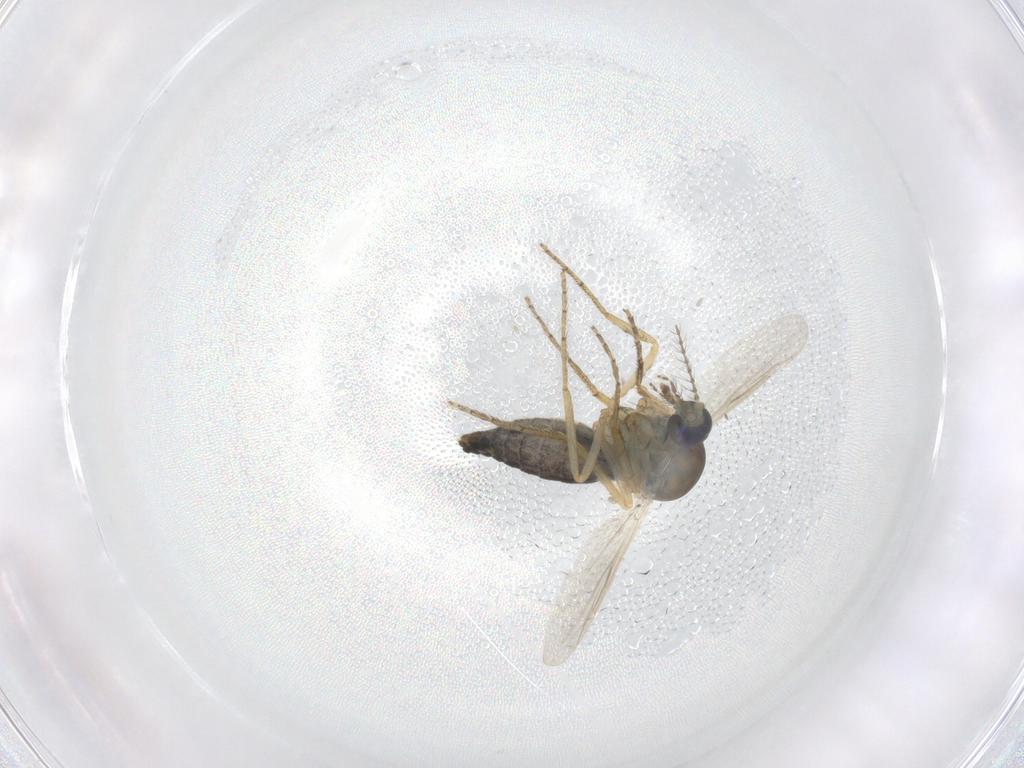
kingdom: Animalia
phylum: Arthropoda
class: Insecta
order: Diptera
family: Ceratopogonidae
